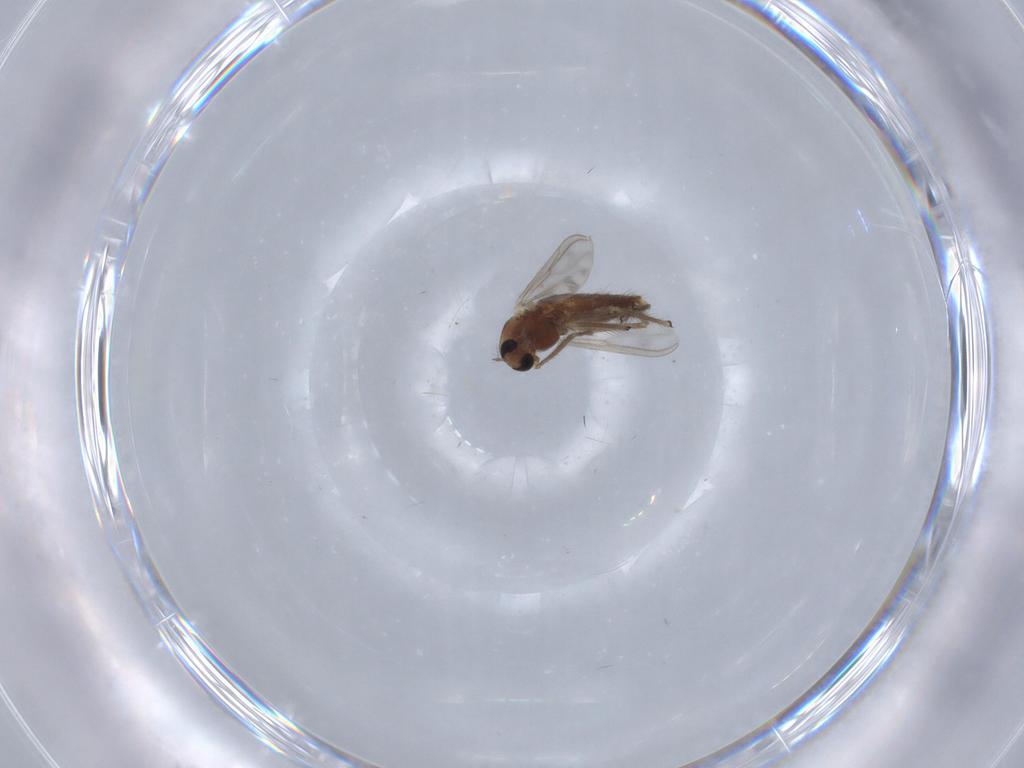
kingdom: Animalia
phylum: Arthropoda
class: Insecta
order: Diptera
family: Chironomidae
